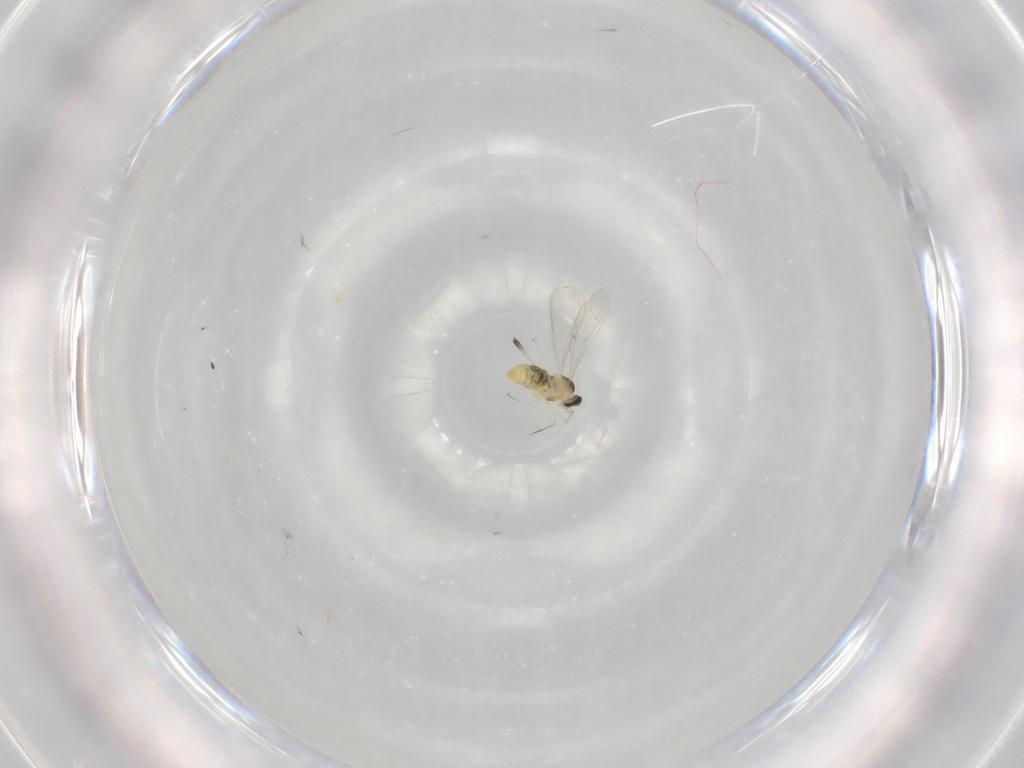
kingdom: Animalia
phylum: Arthropoda
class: Insecta
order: Diptera
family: Cecidomyiidae
